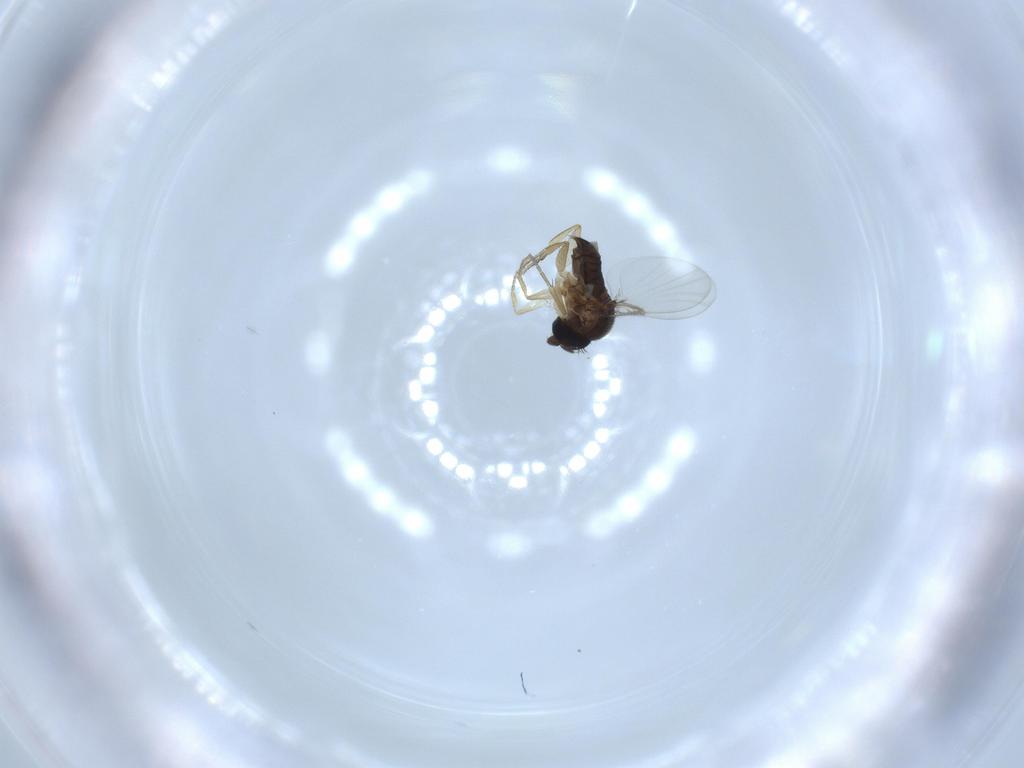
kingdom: Animalia
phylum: Arthropoda
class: Insecta
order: Diptera
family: Phoridae
